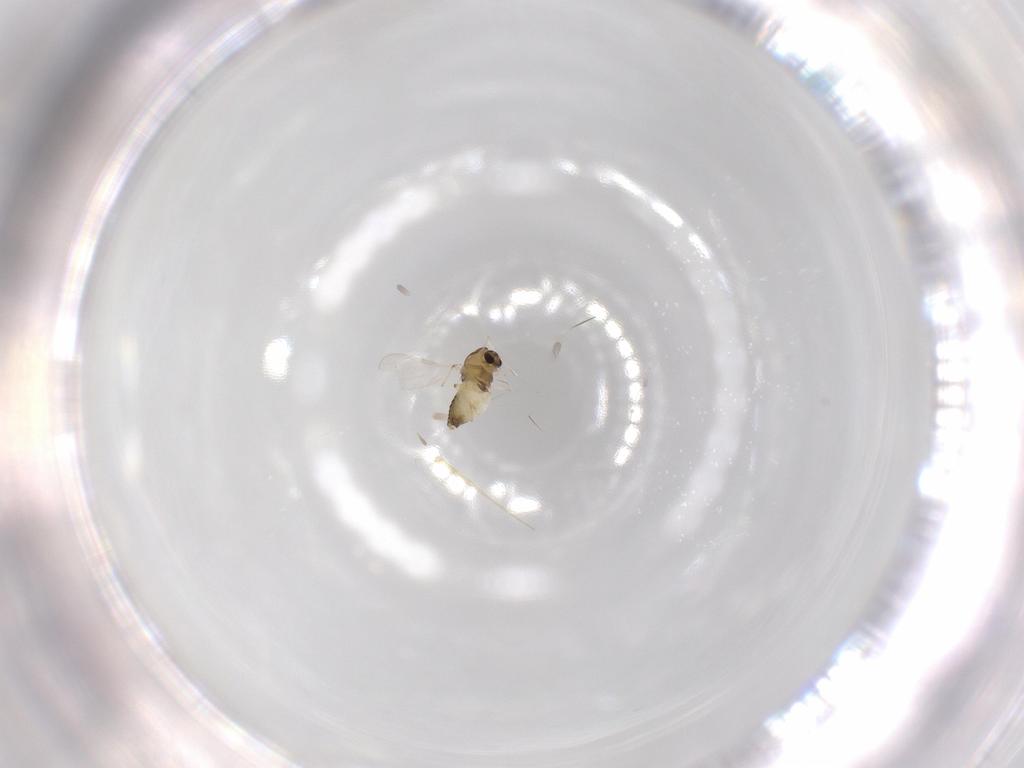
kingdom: Animalia
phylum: Arthropoda
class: Insecta
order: Diptera
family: Chironomidae
